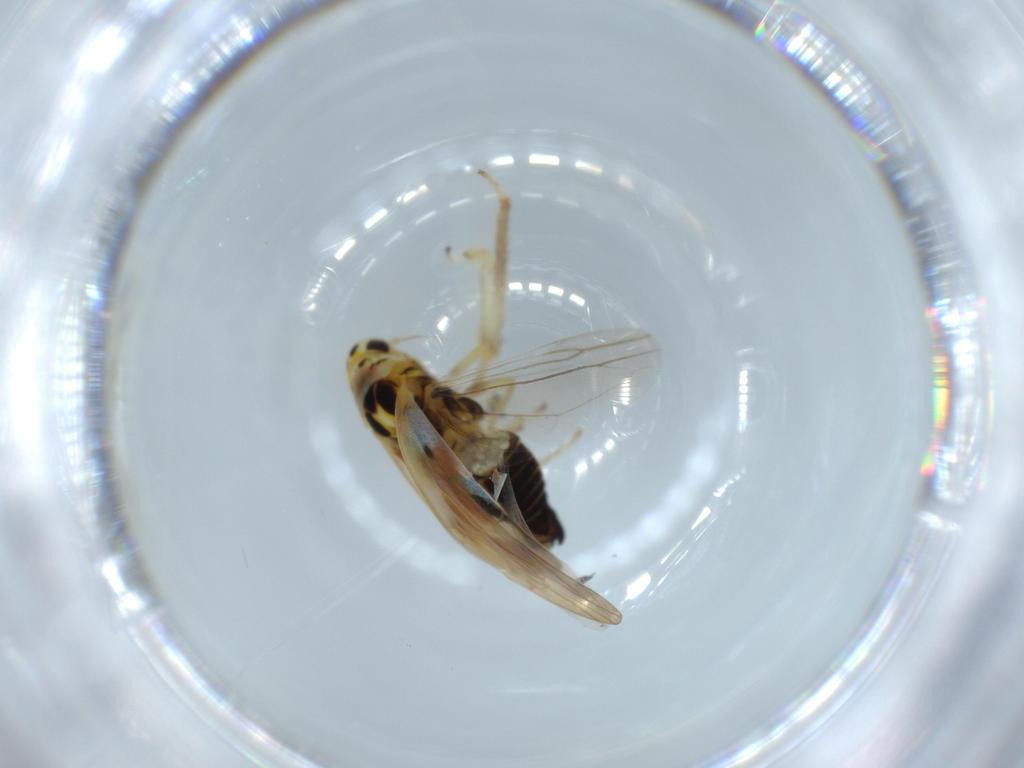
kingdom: Animalia
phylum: Arthropoda
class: Insecta
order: Hemiptera
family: Cicadellidae
